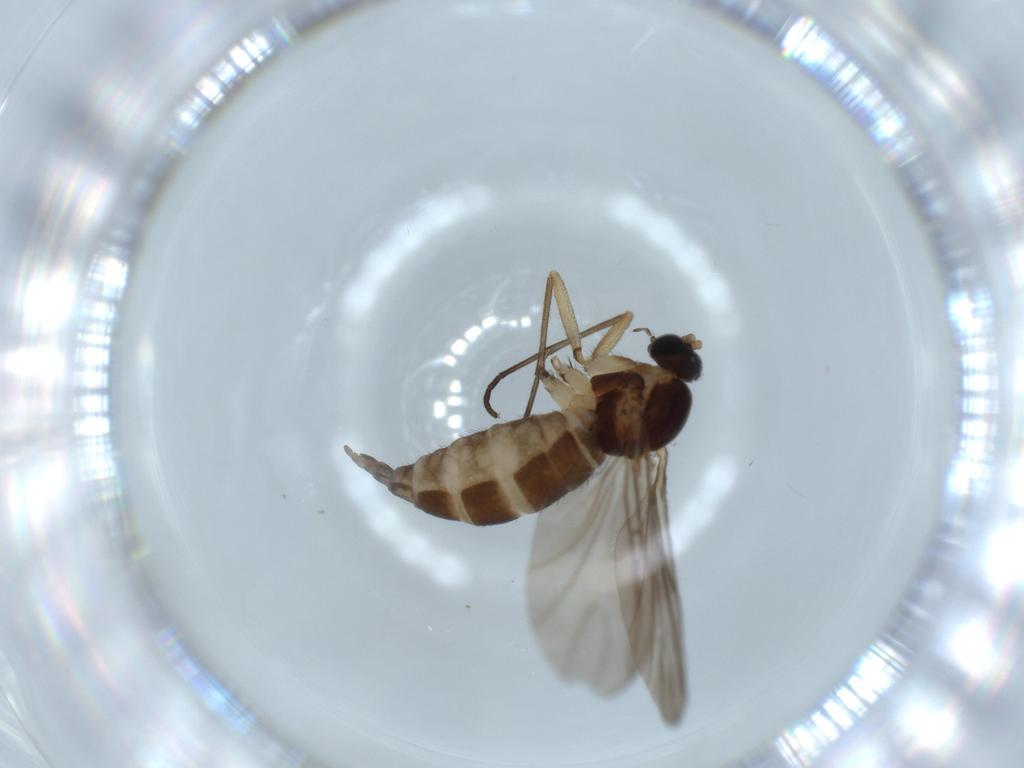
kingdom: Animalia
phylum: Arthropoda
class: Insecta
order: Diptera
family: Sciaridae
